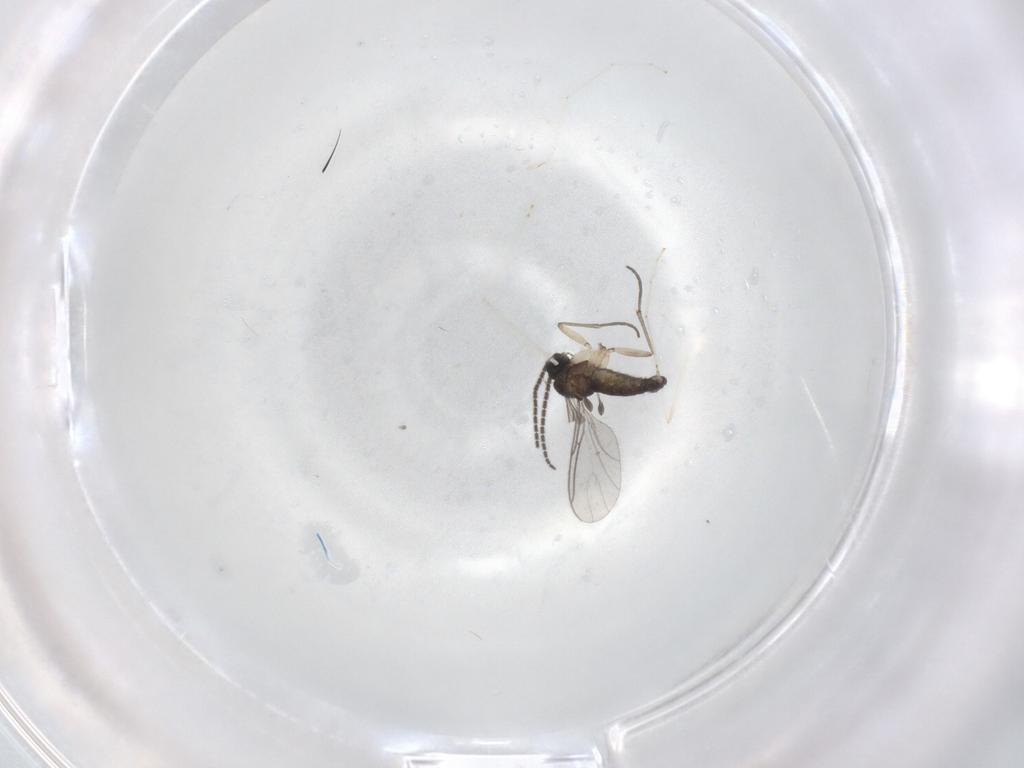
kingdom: Animalia
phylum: Arthropoda
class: Insecta
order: Diptera
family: Sciaridae
